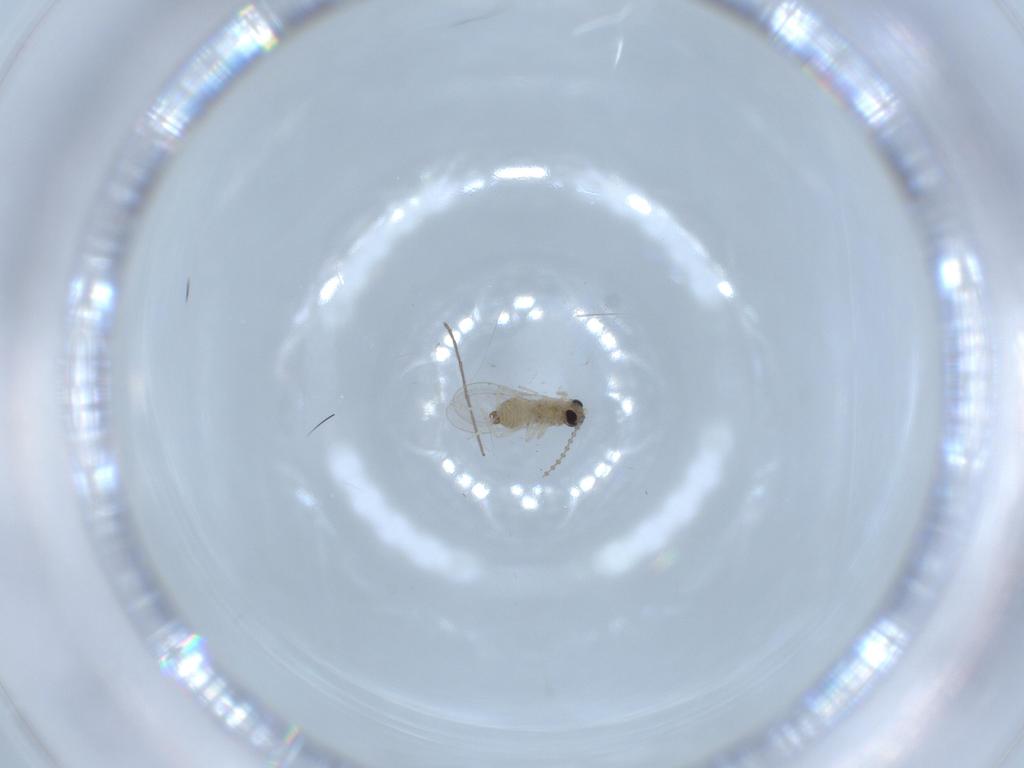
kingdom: Animalia
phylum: Arthropoda
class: Insecta
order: Diptera
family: Cecidomyiidae
